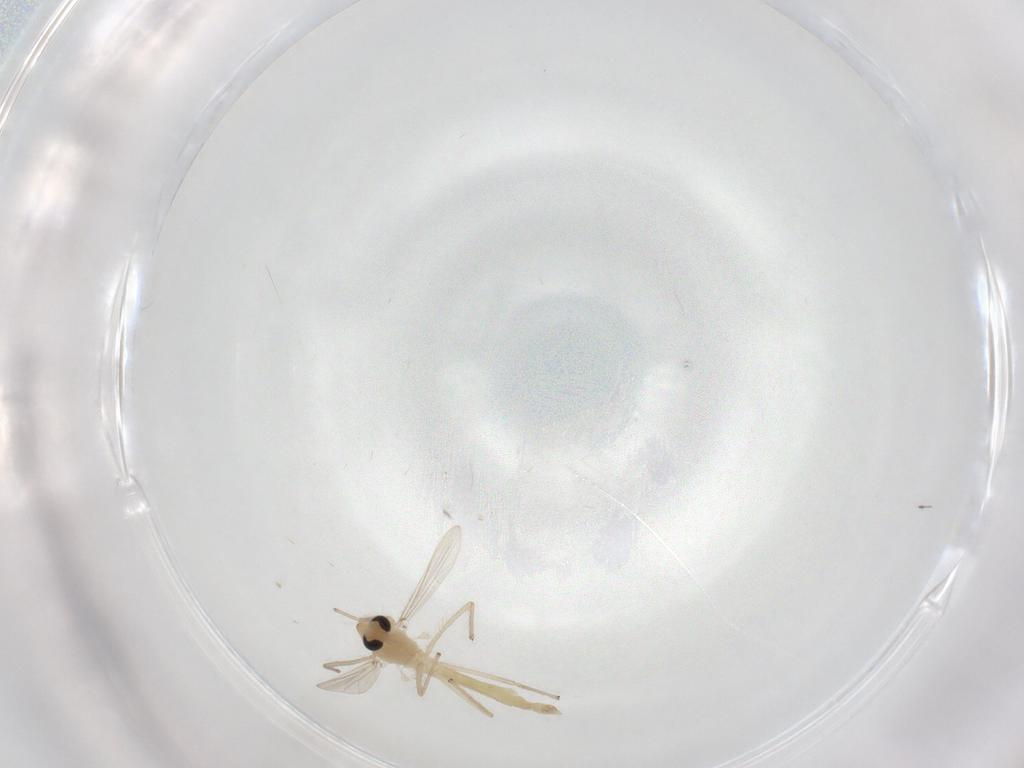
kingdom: Animalia
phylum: Arthropoda
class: Insecta
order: Diptera
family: Chironomidae
